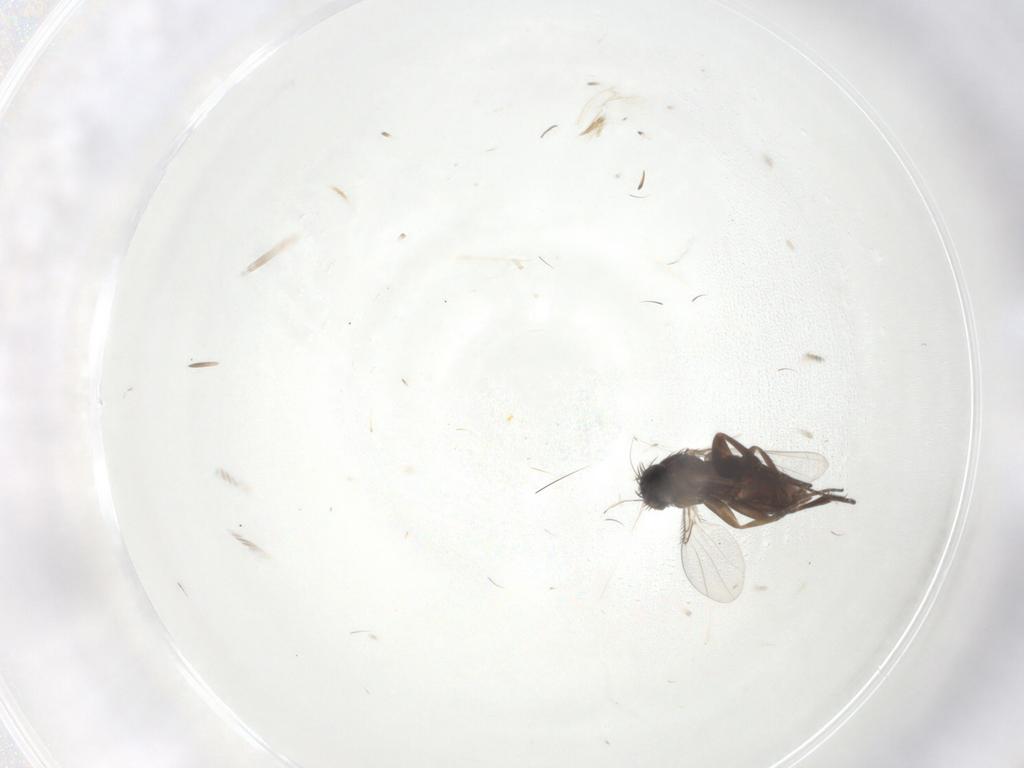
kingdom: Animalia
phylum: Arthropoda
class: Insecta
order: Diptera
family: Phoridae
